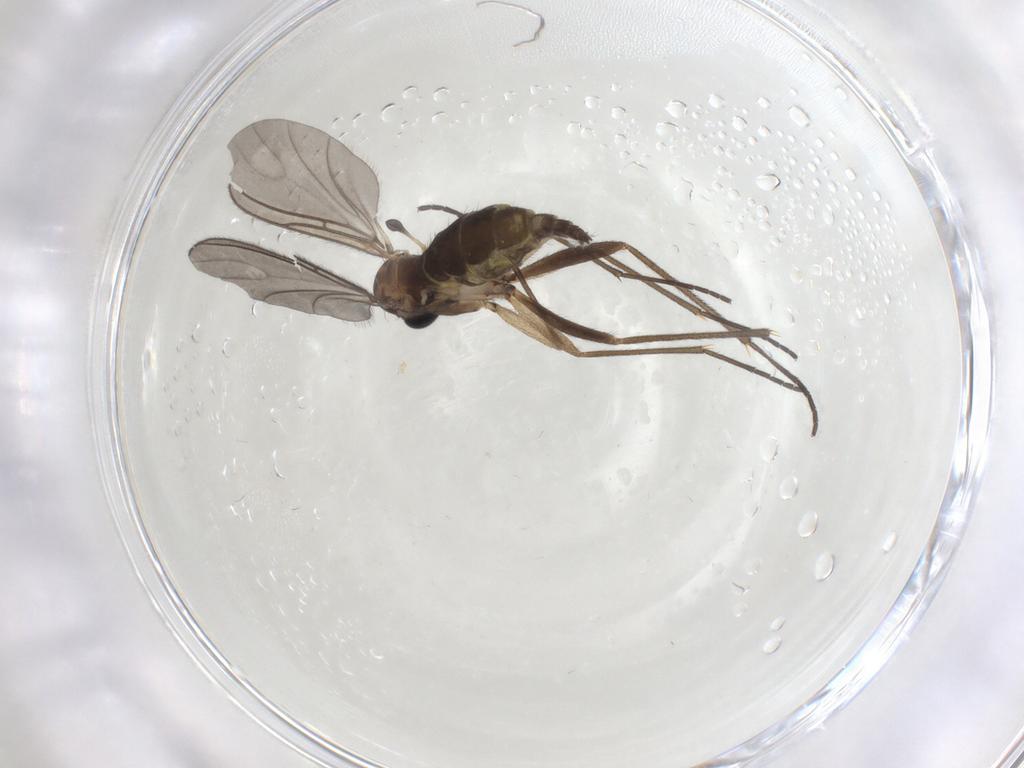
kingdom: Animalia
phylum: Arthropoda
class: Insecta
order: Diptera
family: Sciaridae
